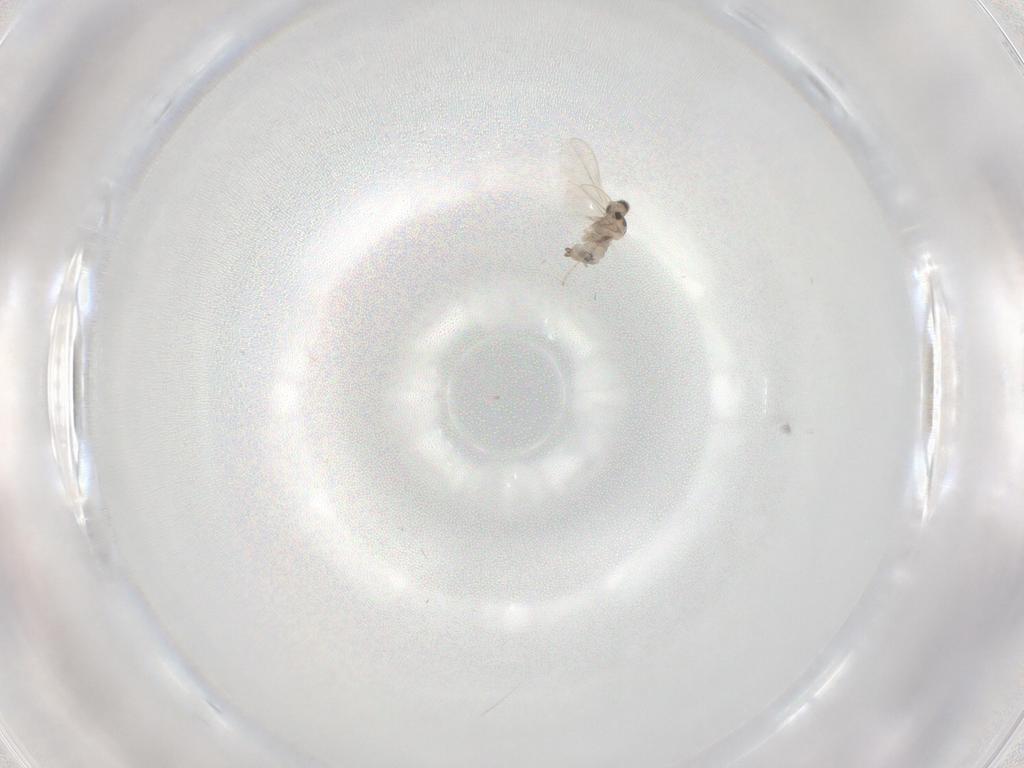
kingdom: Animalia
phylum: Arthropoda
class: Insecta
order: Diptera
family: Cecidomyiidae
